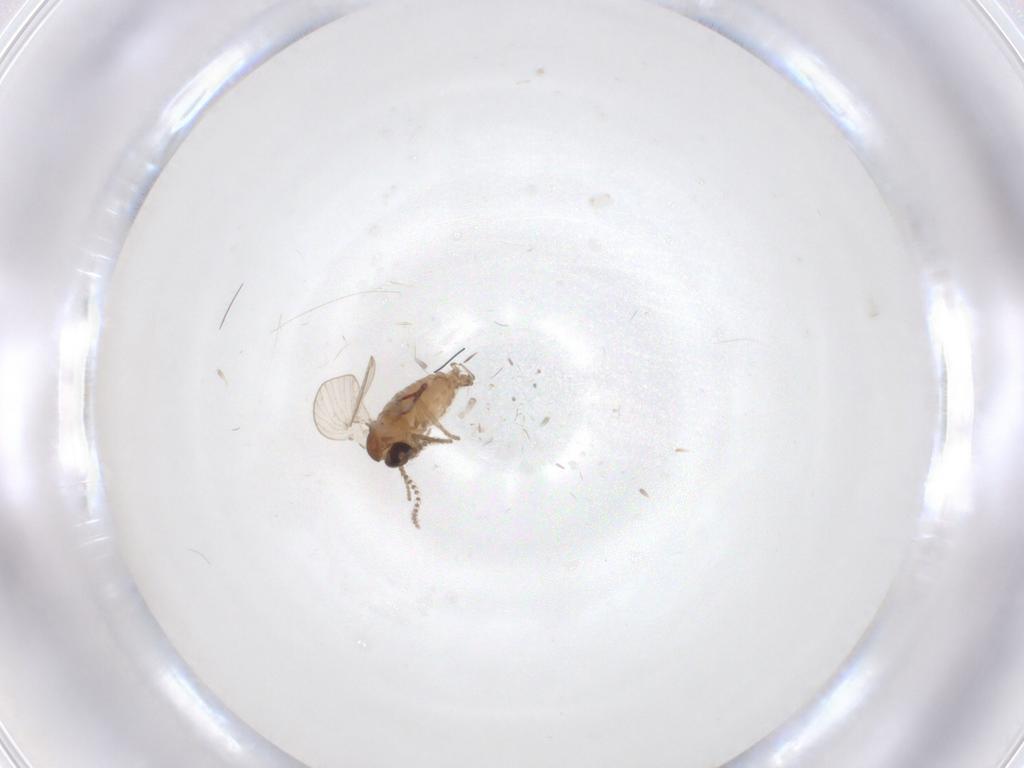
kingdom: Animalia
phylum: Arthropoda
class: Insecta
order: Diptera
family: Psychodidae
